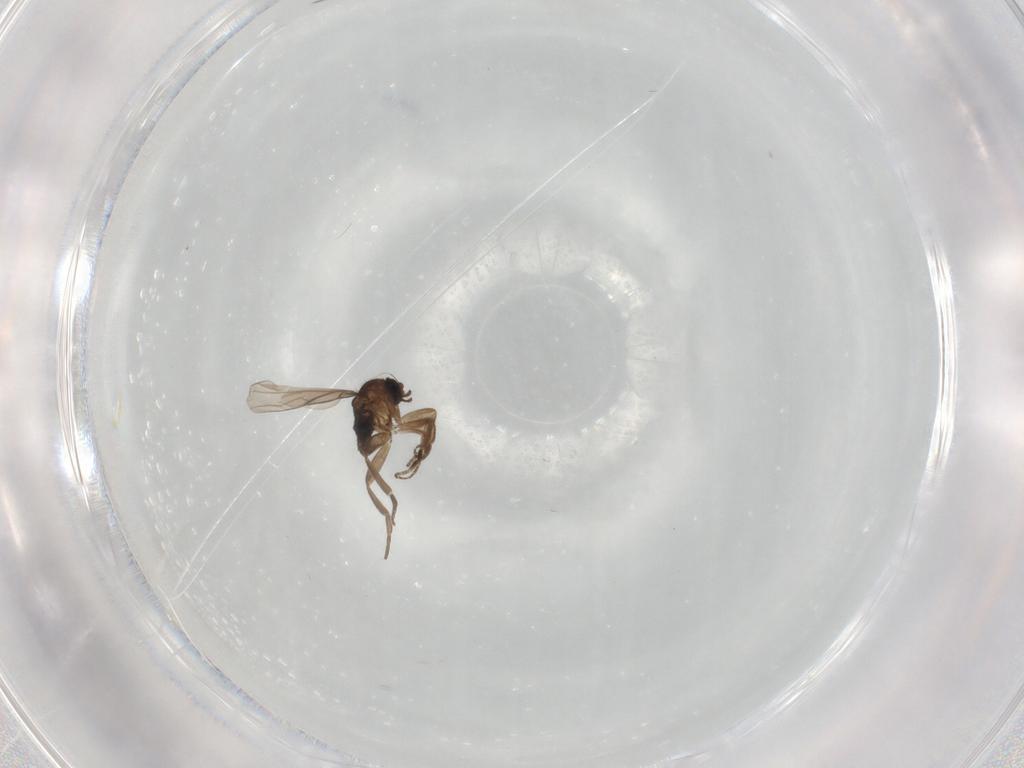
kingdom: Animalia
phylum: Arthropoda
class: Insecta
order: Diptera
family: Phoridae
